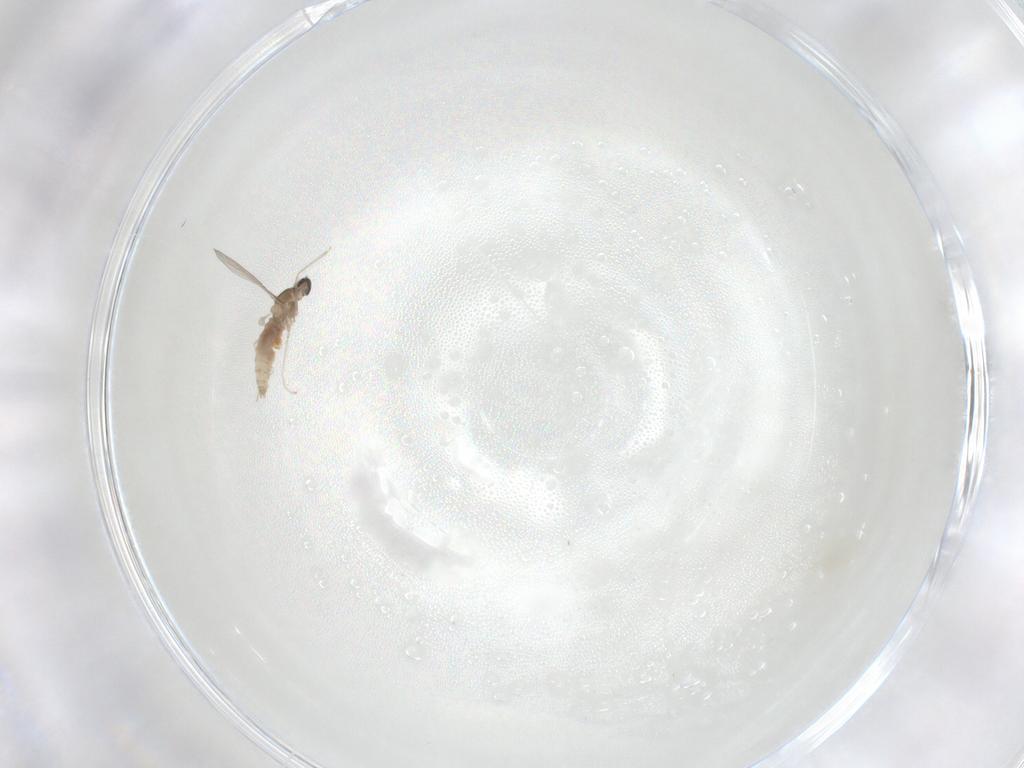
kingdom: Animalia
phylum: Arthropoda
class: Insecta
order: Diptera
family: Cecidomyiidae
